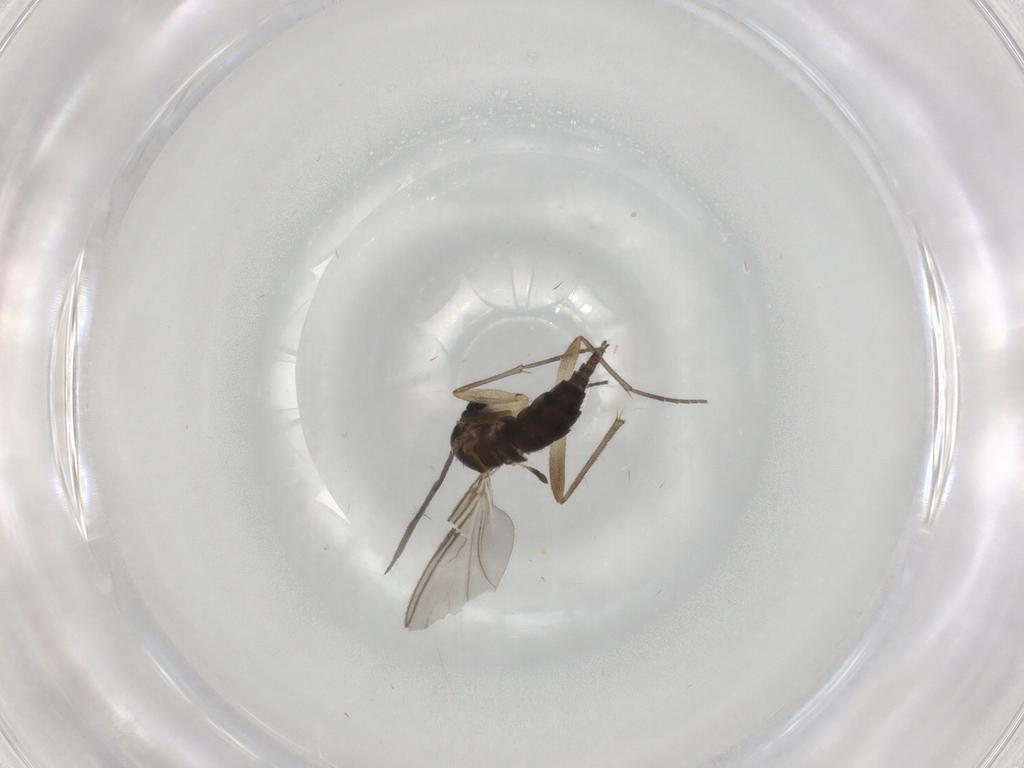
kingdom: Animalia
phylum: Arthropoda
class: Insecta
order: Diptera
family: Sciaridae
